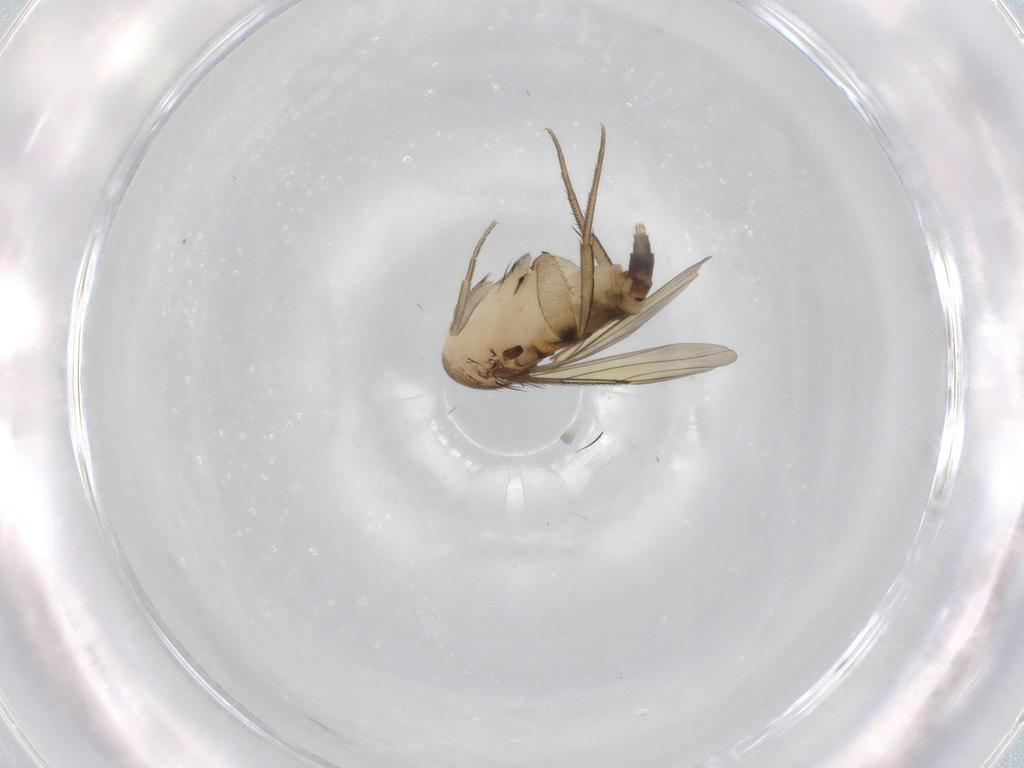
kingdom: Animalia
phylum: Arthropoda
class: Insecta
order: Diptera
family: Phoridae
